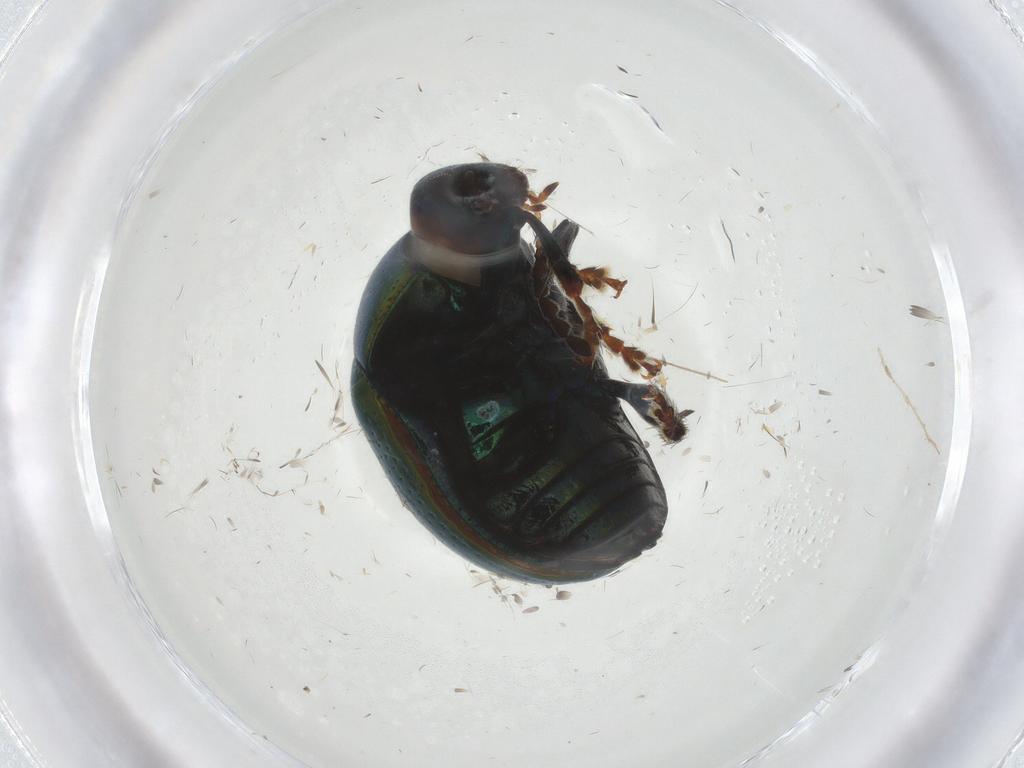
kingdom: Animalia
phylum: Arthropoda
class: Insecta
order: Coleoptera
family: Chrysomelidae
